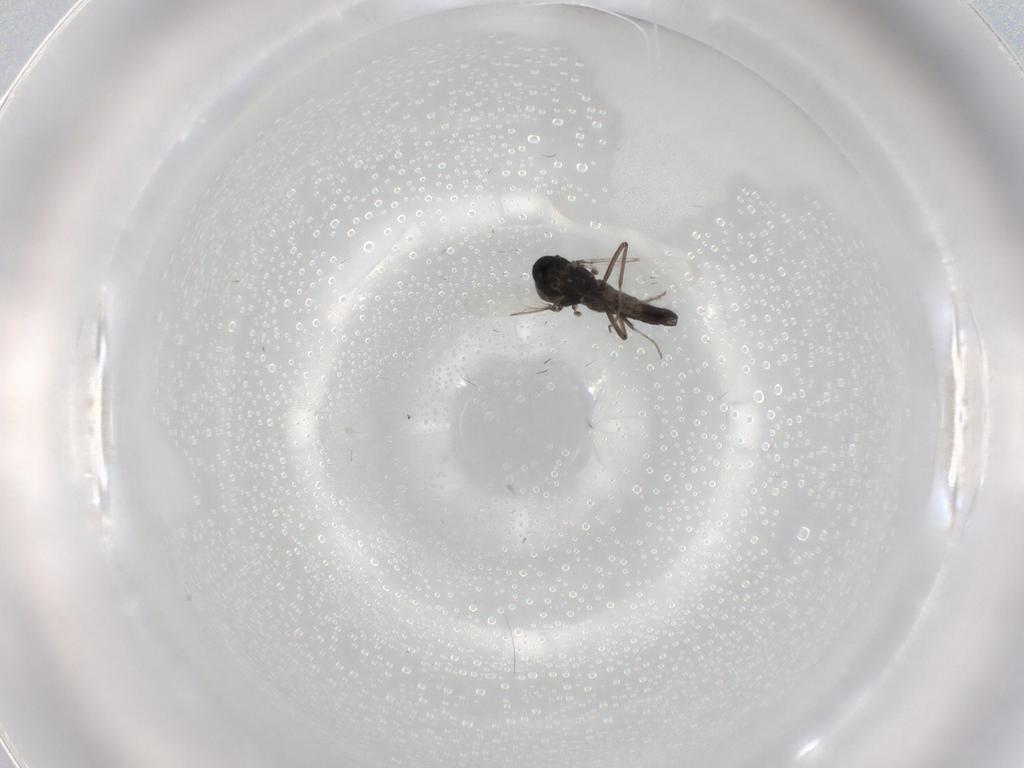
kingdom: Animalia
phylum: Arthropoda
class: Insecta
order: Diptera
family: Ceratopogonidae
